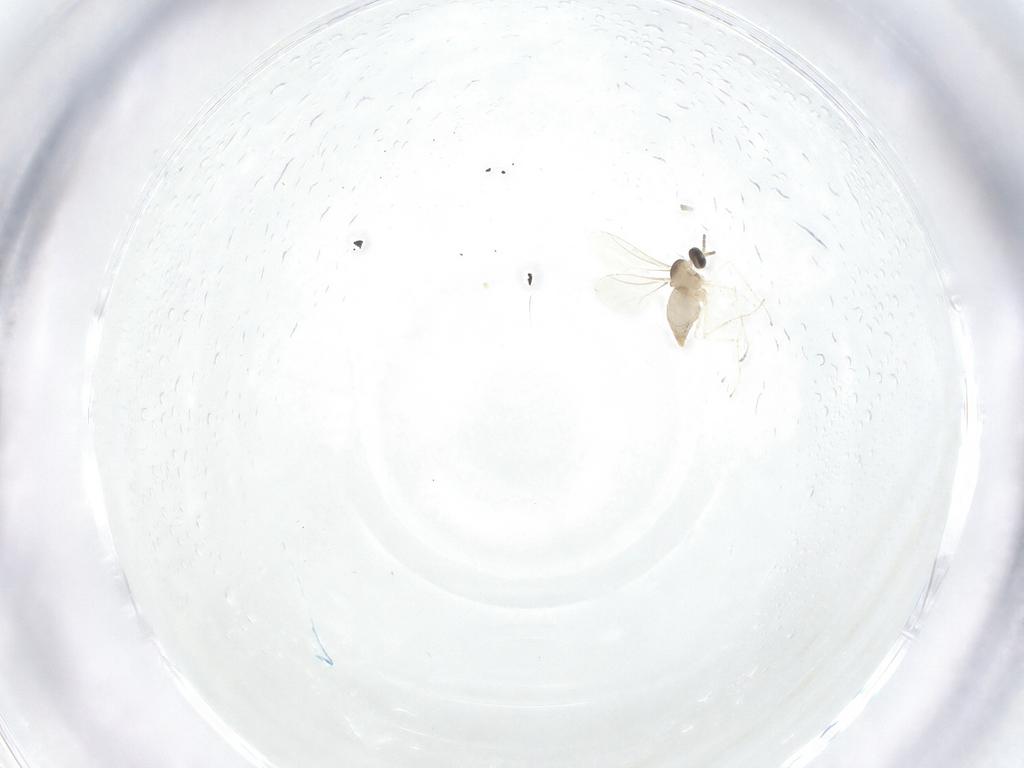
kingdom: Animalia
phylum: Arthropoda
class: Insecta
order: Diptera
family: Cecidomyiidae
